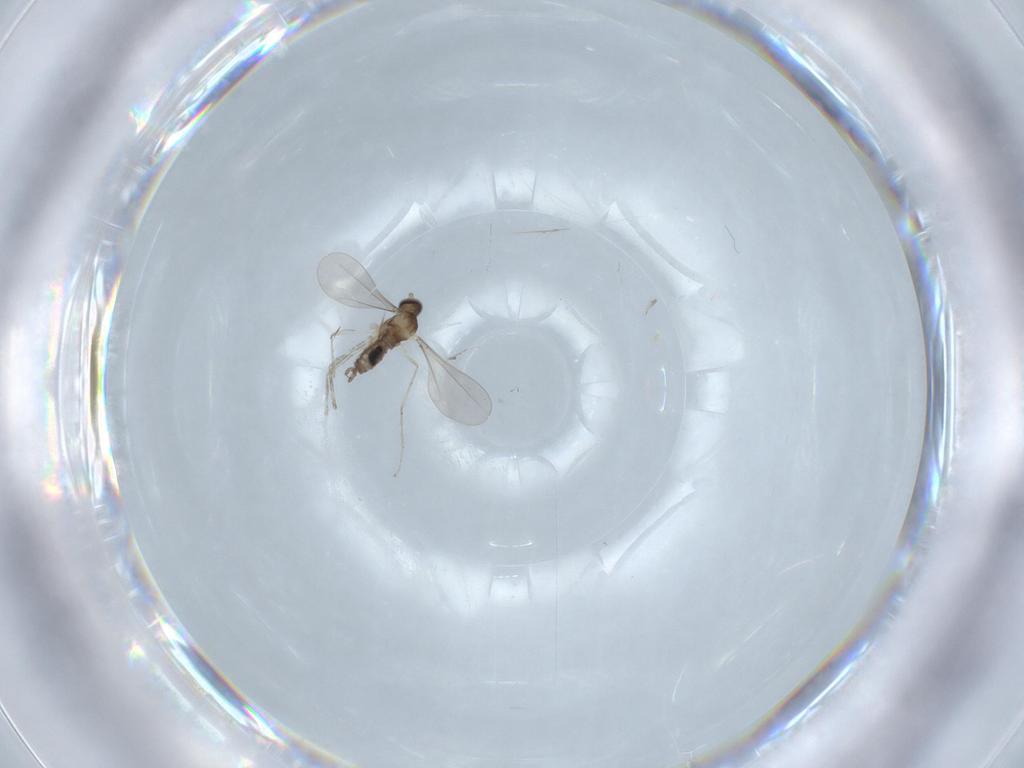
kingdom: Animalia
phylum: Arthropoda
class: Insecta
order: Diptera
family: Cecidomyiidae
